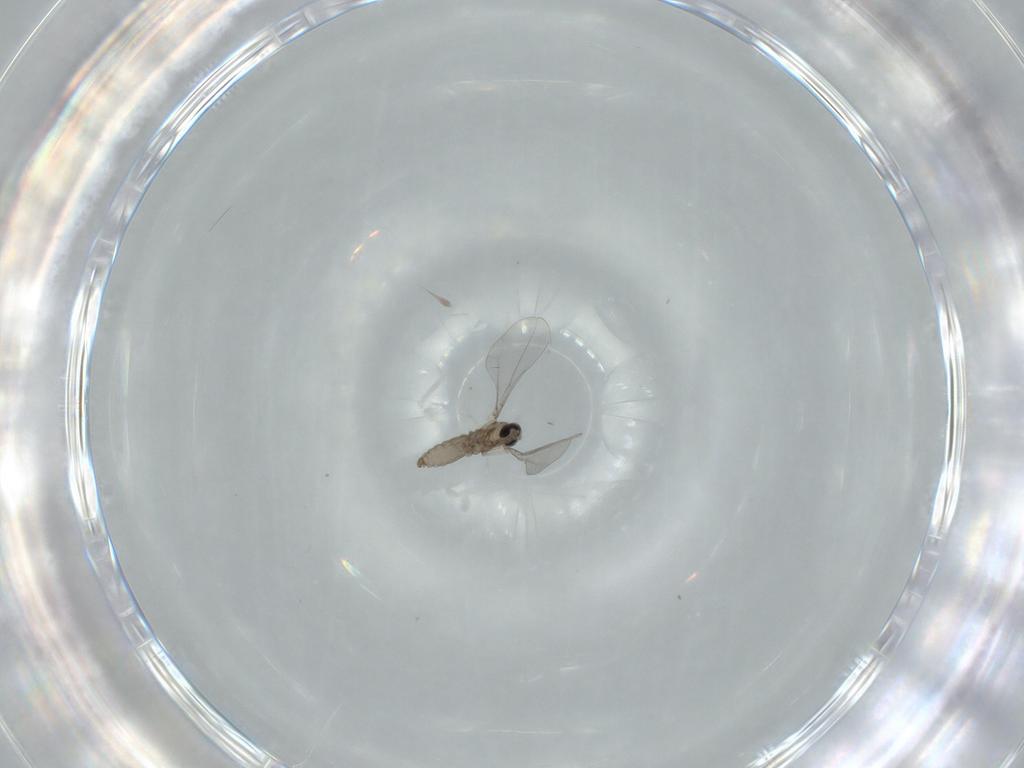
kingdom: Animalia
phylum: Arthropoda
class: Insecta
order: Diptera
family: Cecidomyiidae
